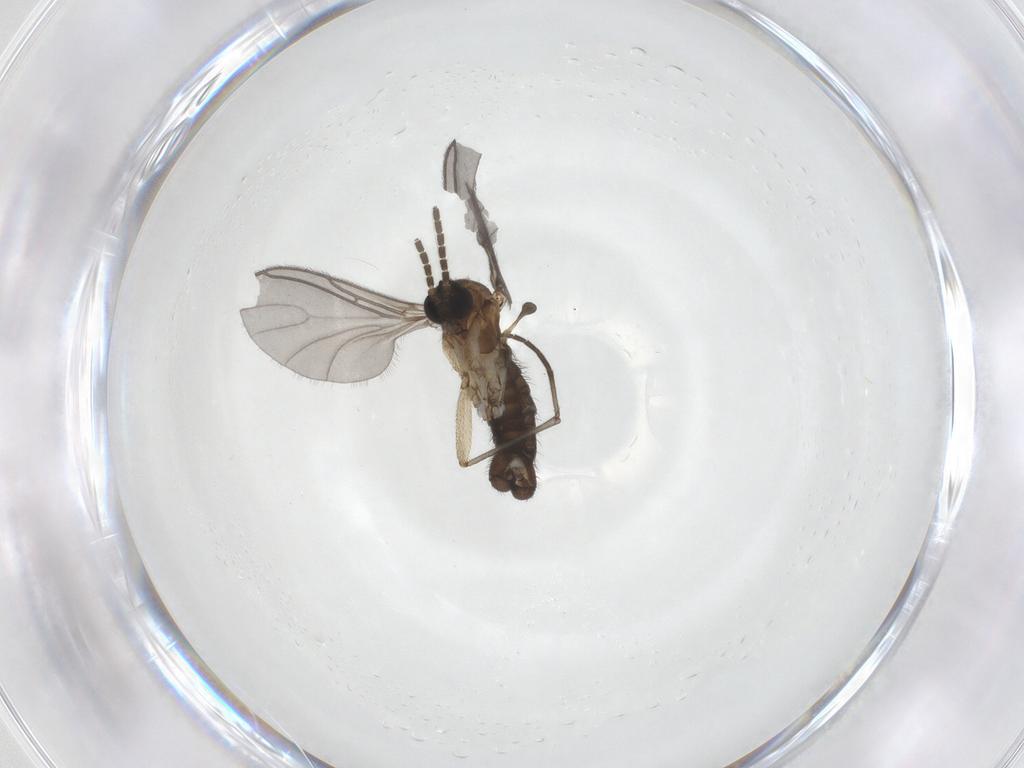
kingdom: Animalia
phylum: Arthropoda
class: Insecta
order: Diptera
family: Sciaridae
